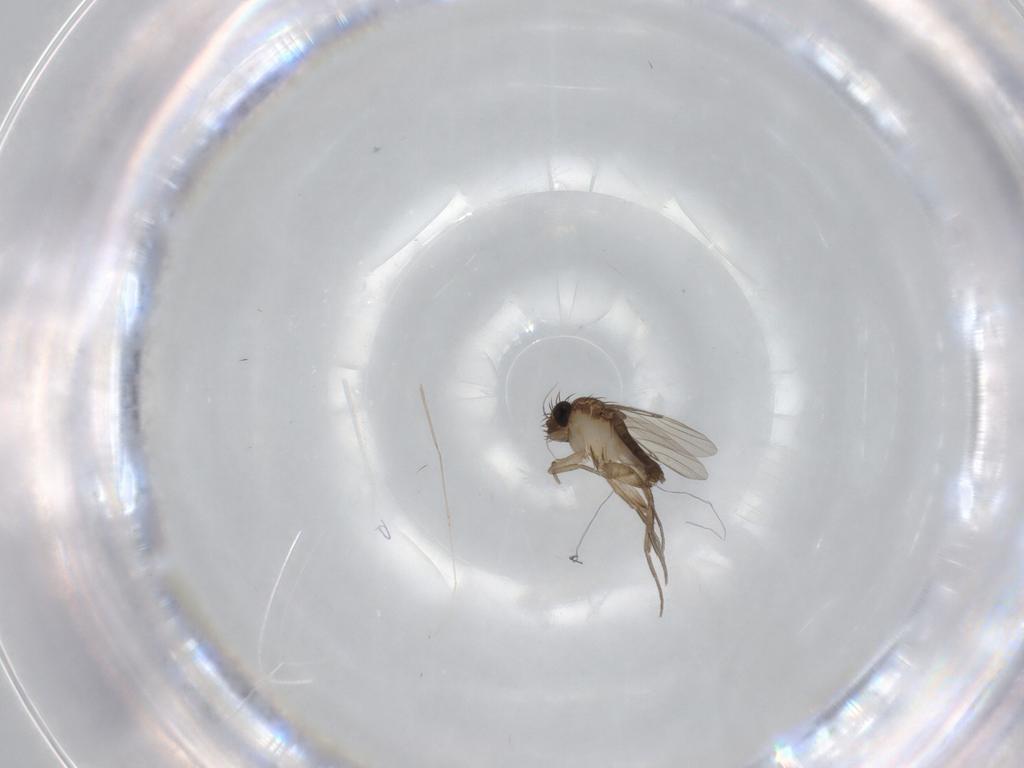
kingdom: Animalia
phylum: Arthropoda
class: Insecta
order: Diptera
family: Phoridae
